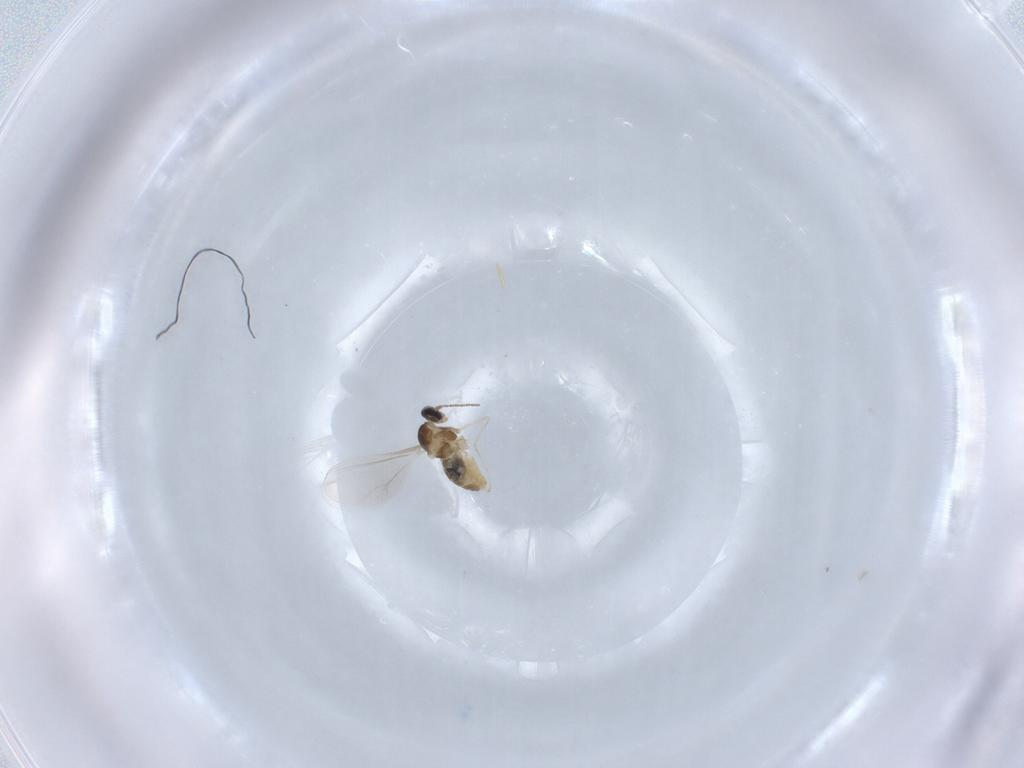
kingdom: Animalia
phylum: Arthropoda
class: Insecta
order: Diptera
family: Cecidomyiidae
